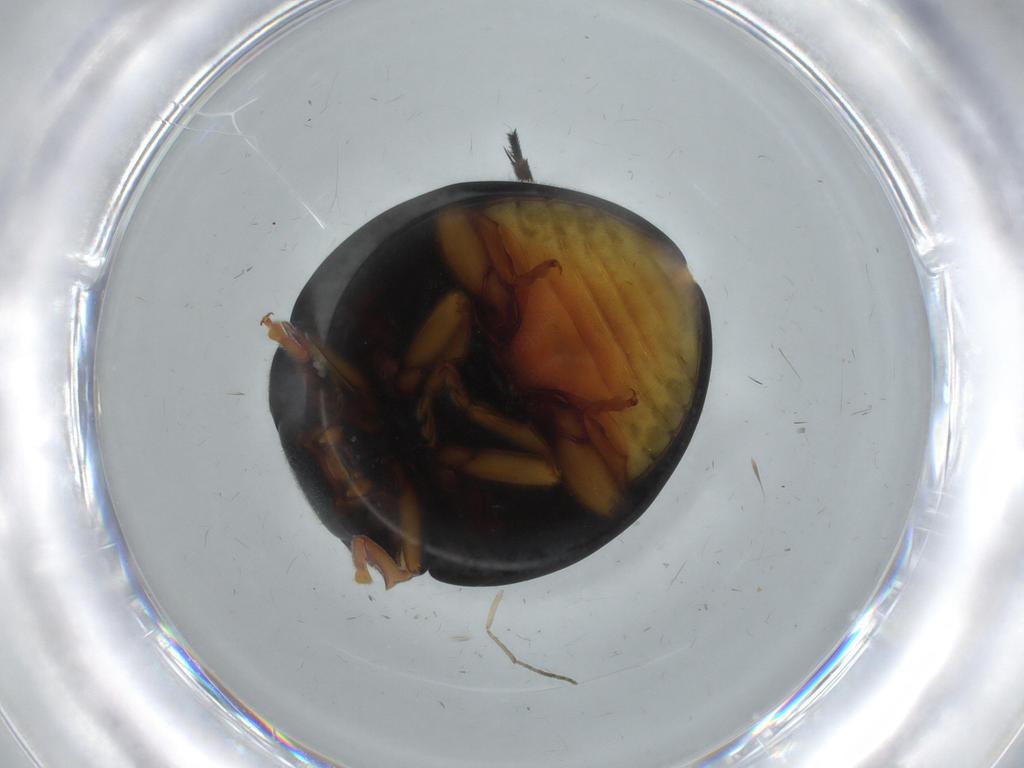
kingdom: Animalia
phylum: Arthropoda
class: Insecta
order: Coleoptera
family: Coccinellidae
